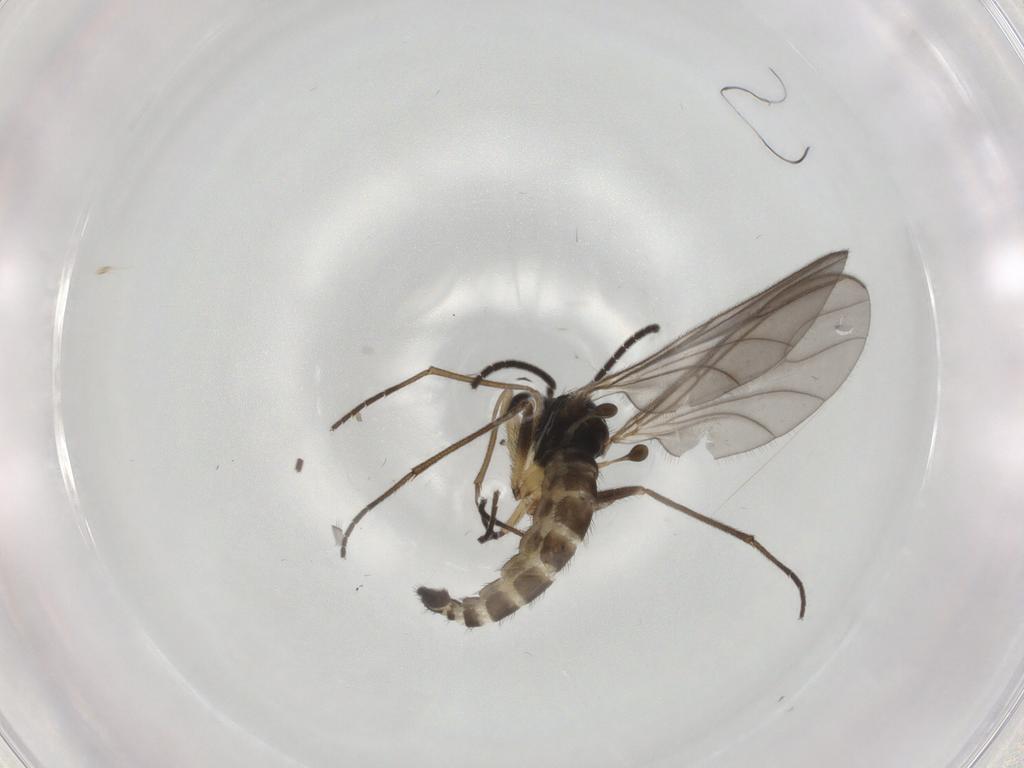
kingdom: Animalia
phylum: Arthropoda
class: Insecta
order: Diptera
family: Sciaridae
